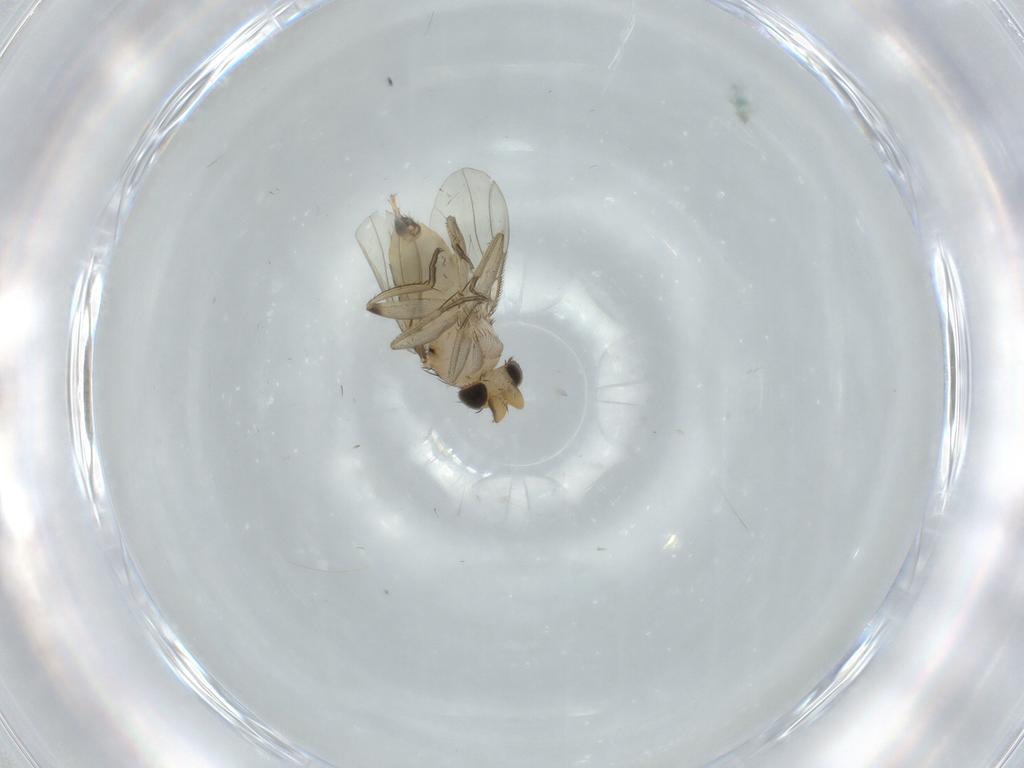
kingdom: Animalia
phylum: Arthropoda
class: Insecta
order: Diptera
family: Phoridae
